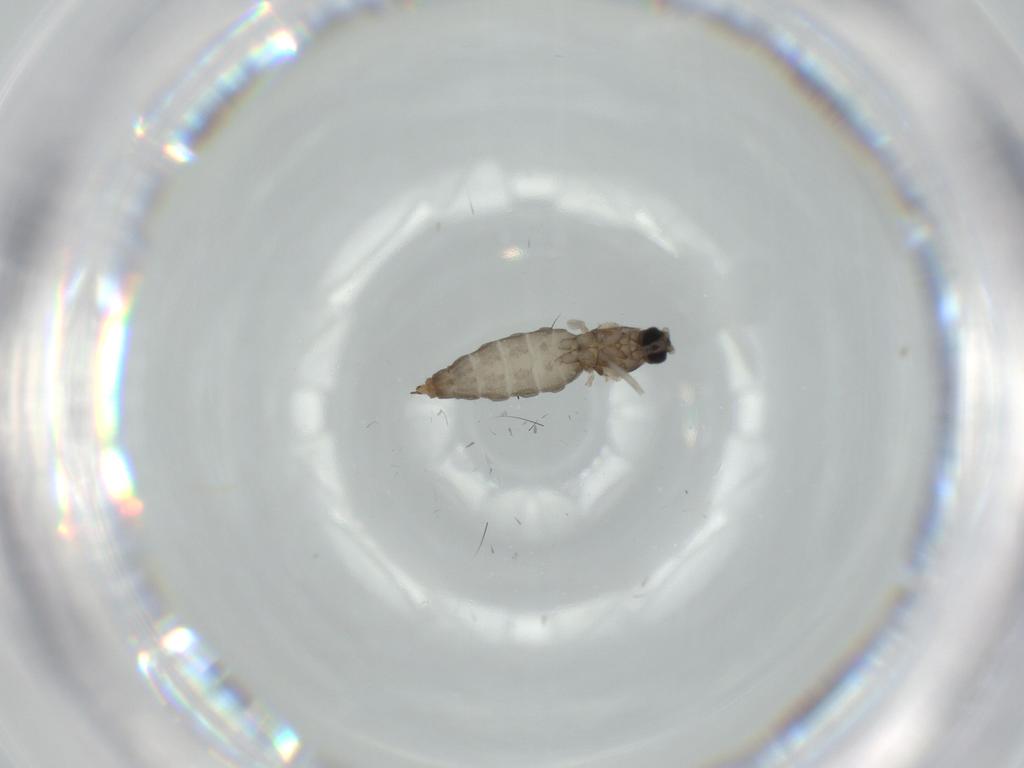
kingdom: Animalia
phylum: Arthropoda
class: Insecta
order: Diptera
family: Cecidomyiidae
